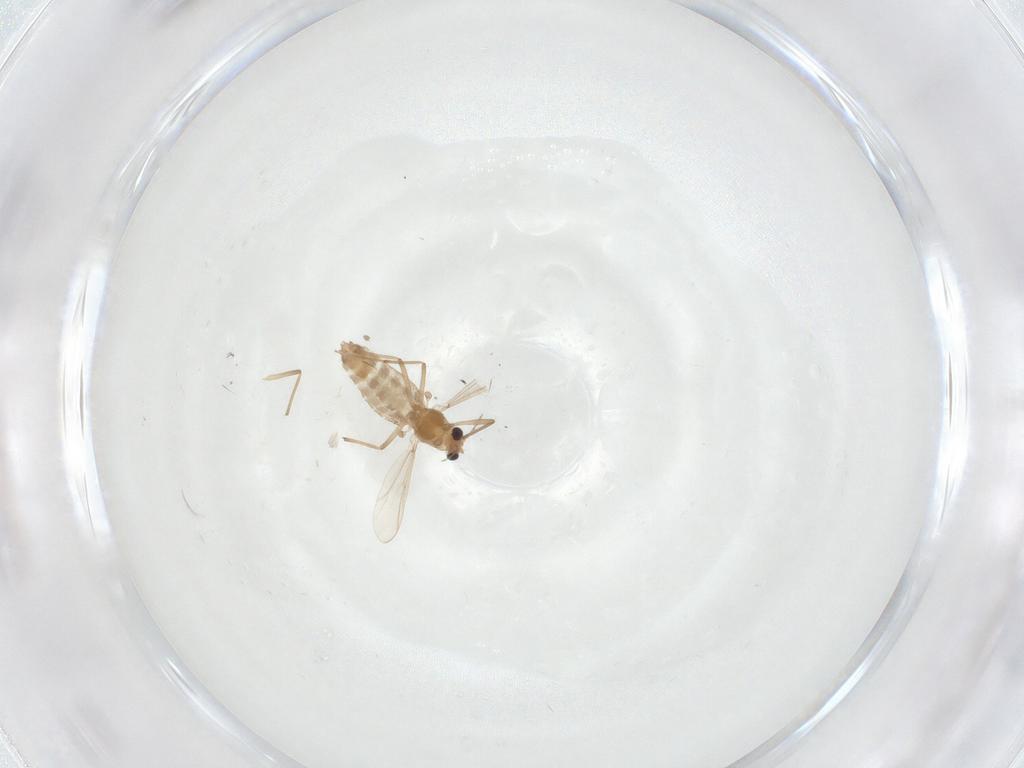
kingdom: Animalia
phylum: Arthropoda
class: Insecta
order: Diptera
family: Chironomidae
